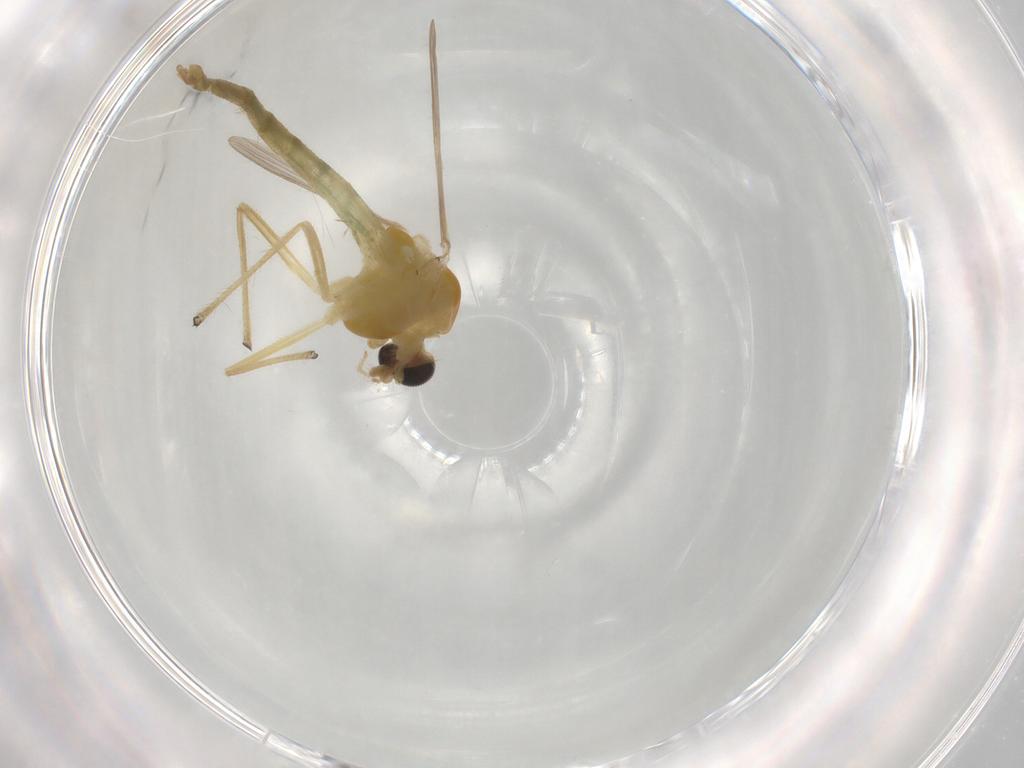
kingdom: Animalia
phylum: Arthropoda
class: Insecta
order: Diptera
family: Chironomidae
